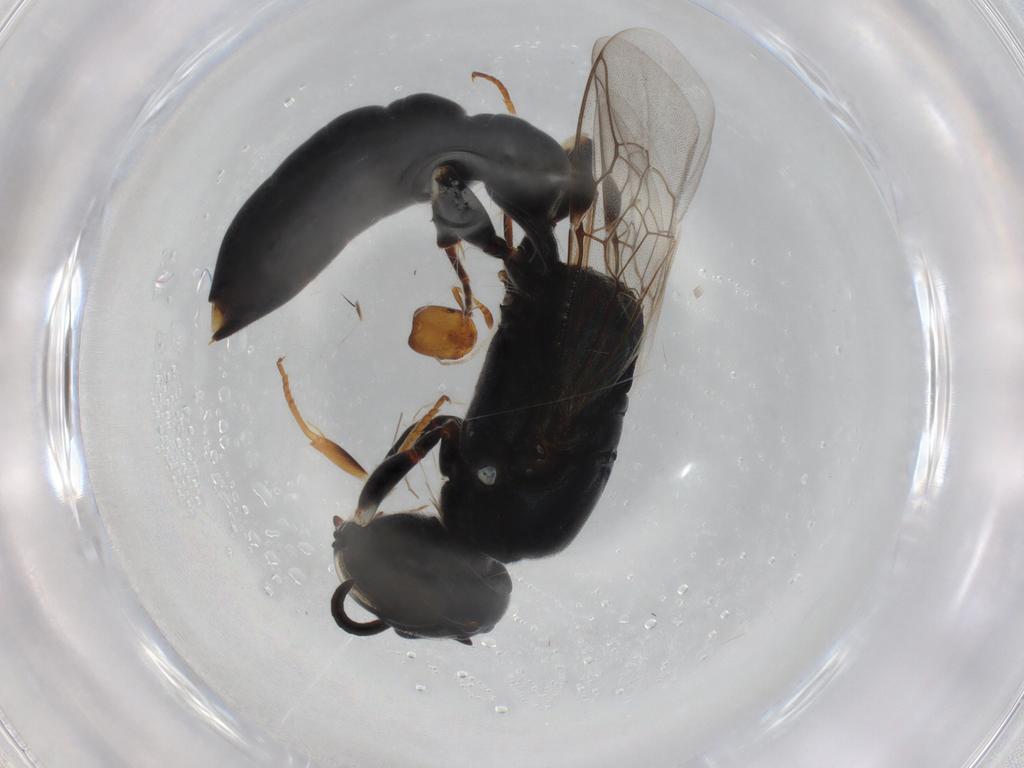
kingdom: Animalia
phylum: Arthropoda
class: Insecta
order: Hymenoptera
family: Formicidae
